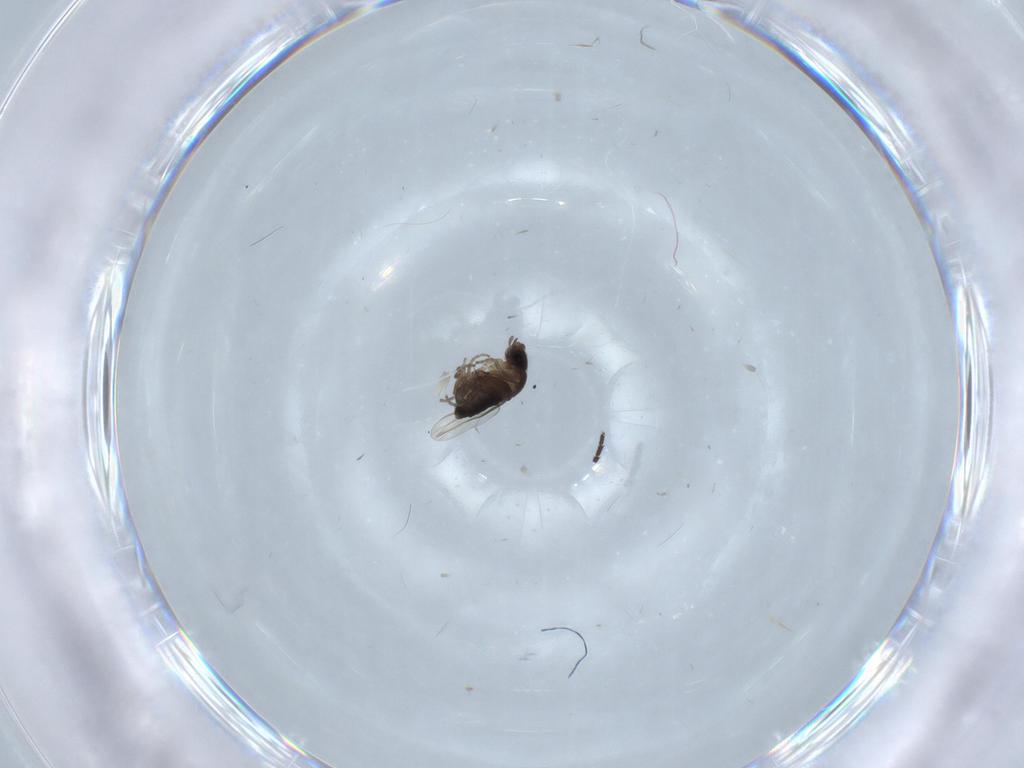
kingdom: Animalia
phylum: Arthropoda
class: Insecta
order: Diptera
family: Phoridae
